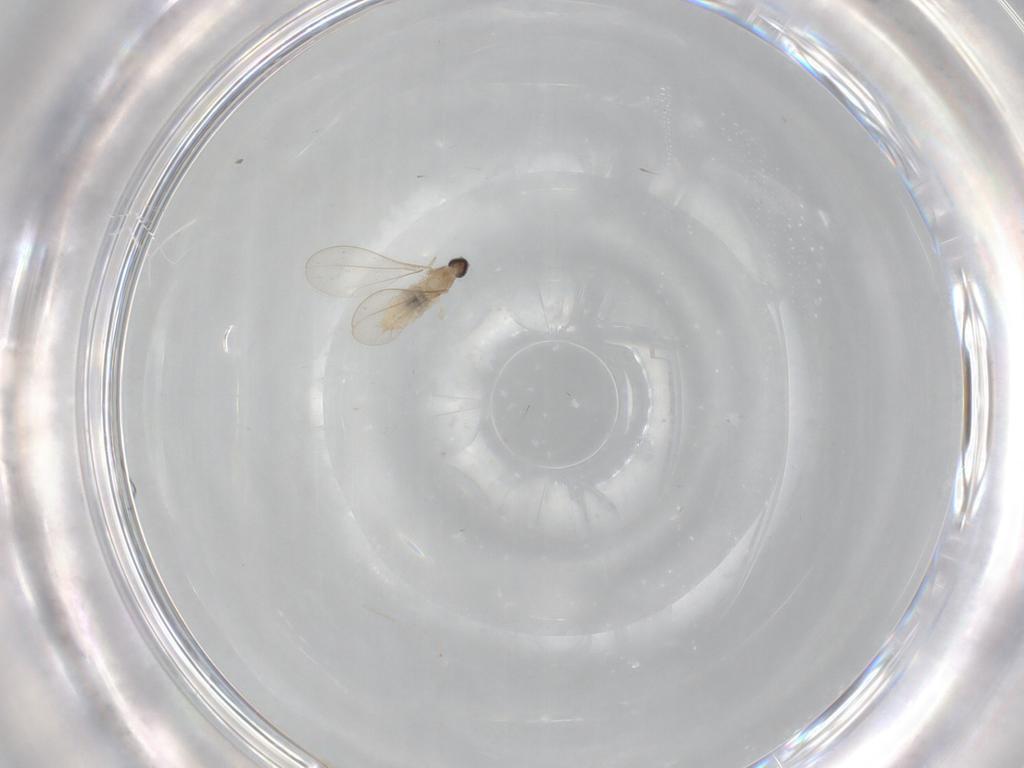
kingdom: Animalia
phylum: Arthropoda
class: Insecta
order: Diptera
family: Cecidomyiidae
